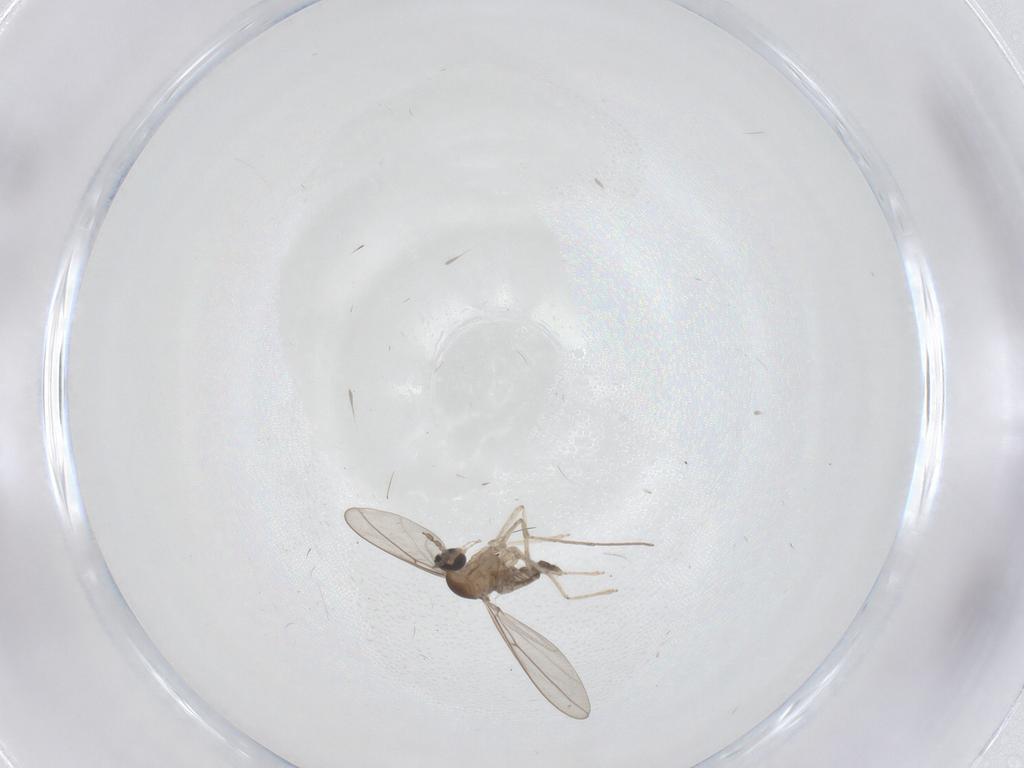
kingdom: Animalia
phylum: Arthropoda
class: Insecta
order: Diptera
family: Cecidomyiidae
